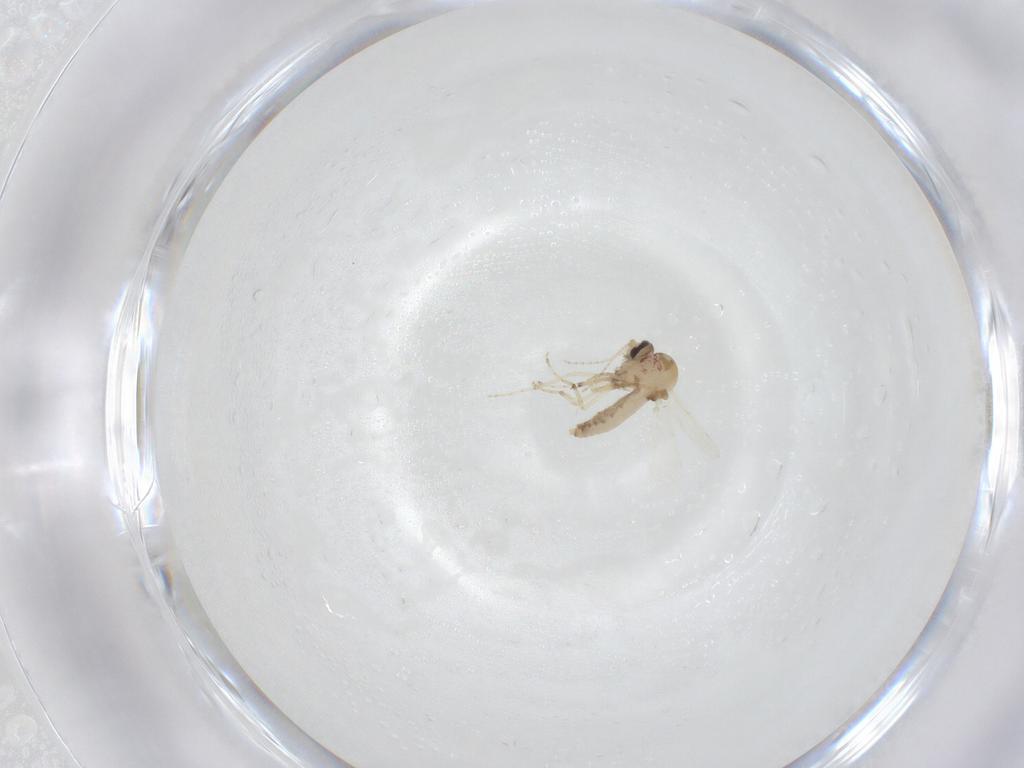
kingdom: Animalia
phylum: Arthropoda
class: Insecta
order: Diptera
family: Ceratopogonidae
